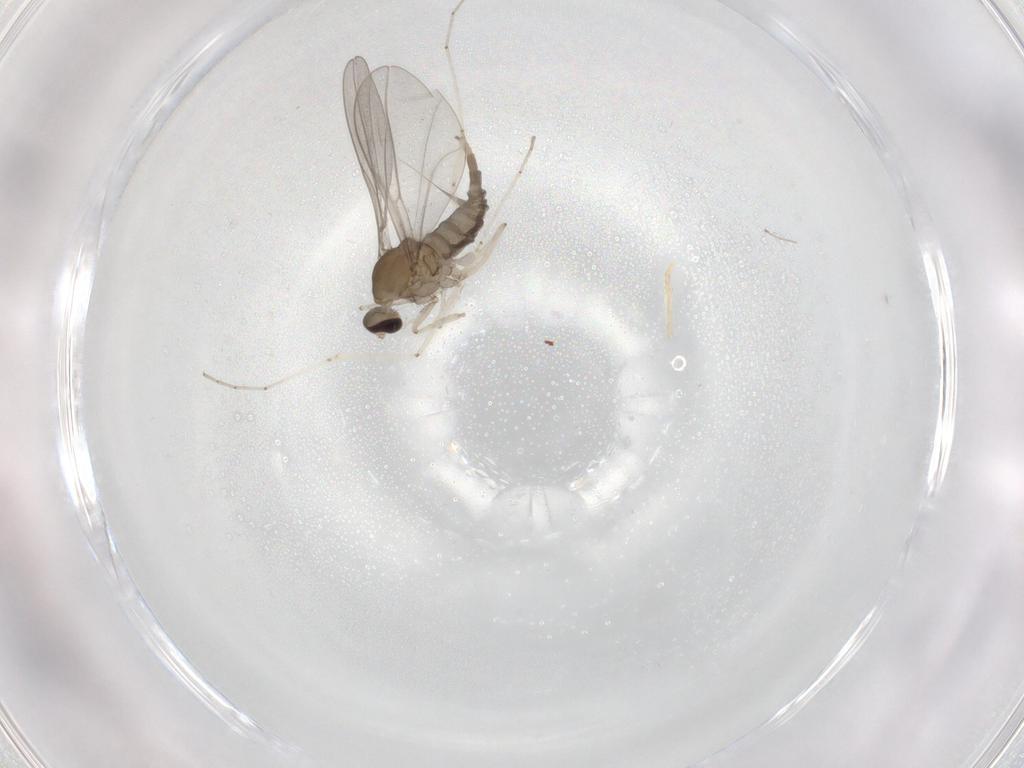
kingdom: Animalia
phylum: Arthropoda
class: Insecta
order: Diptera
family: Cecidomyiidae
